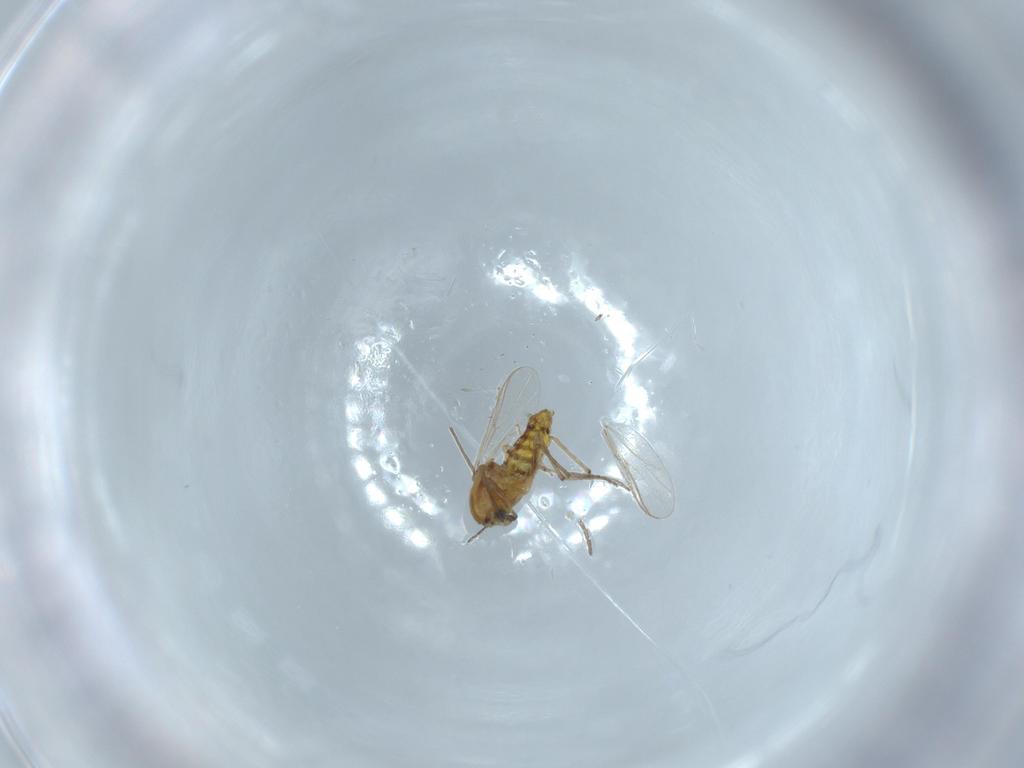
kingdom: Animalia
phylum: Arthropoda
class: Insecta
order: Diptera
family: Chironomidae
